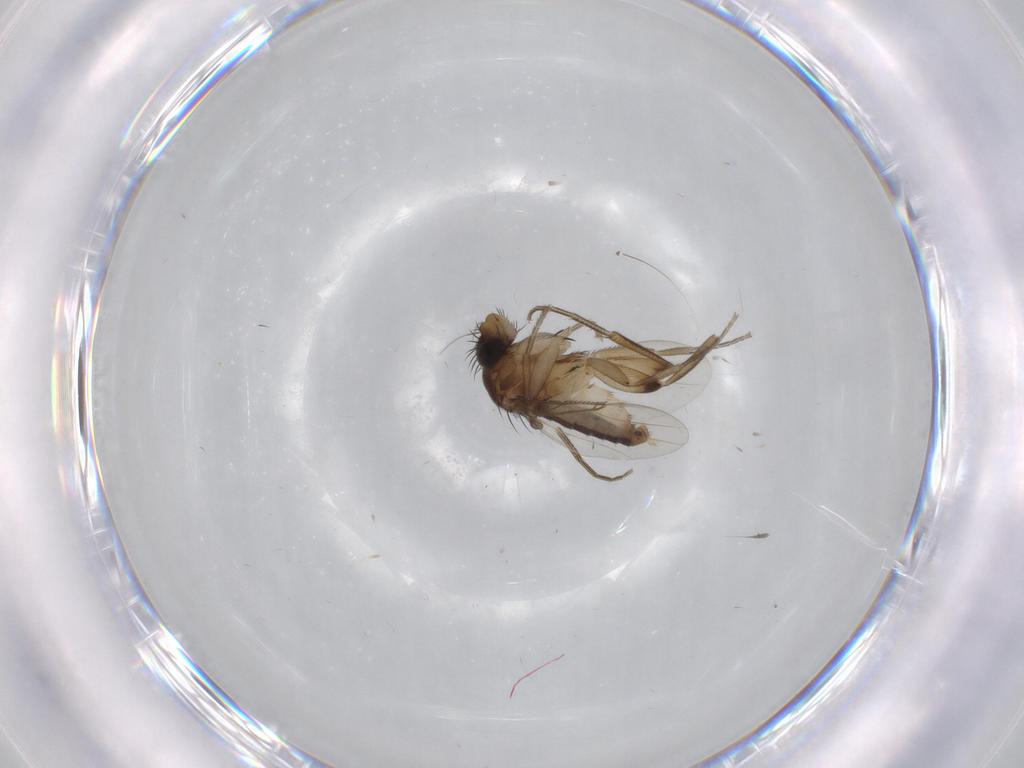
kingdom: Animalia
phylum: Arthropoda
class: Insecta
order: Diptera
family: Phoridae
